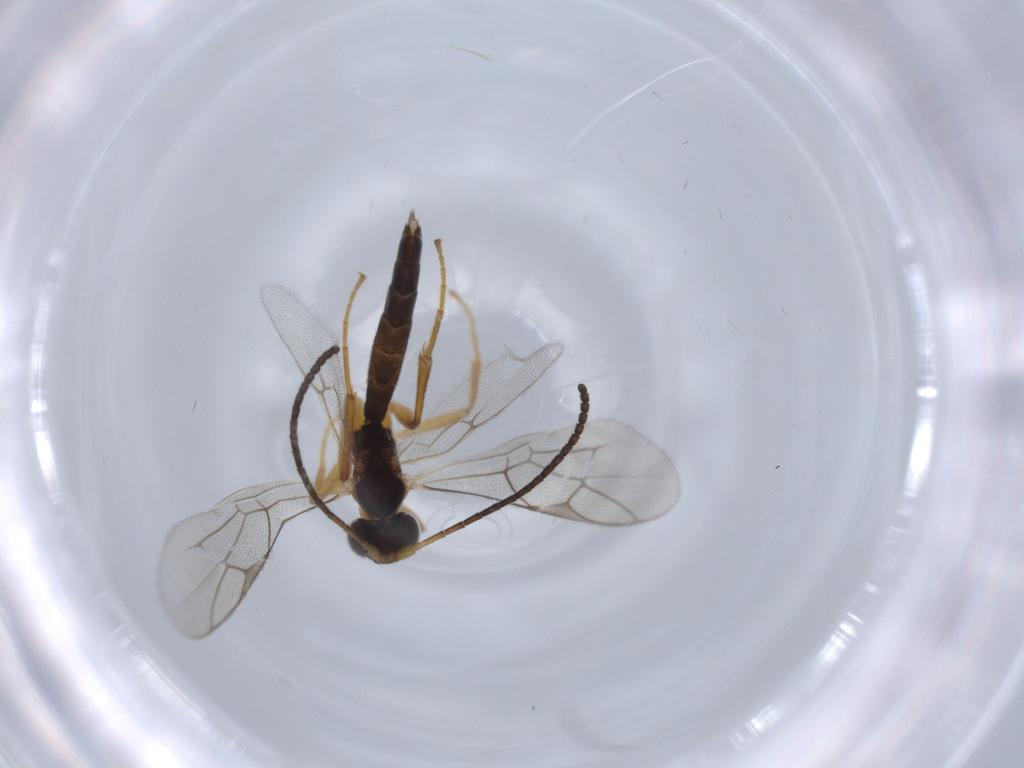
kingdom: Animalia
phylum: Arthropoda
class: Insecta
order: Hymenoptera
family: Ichneumonidae
